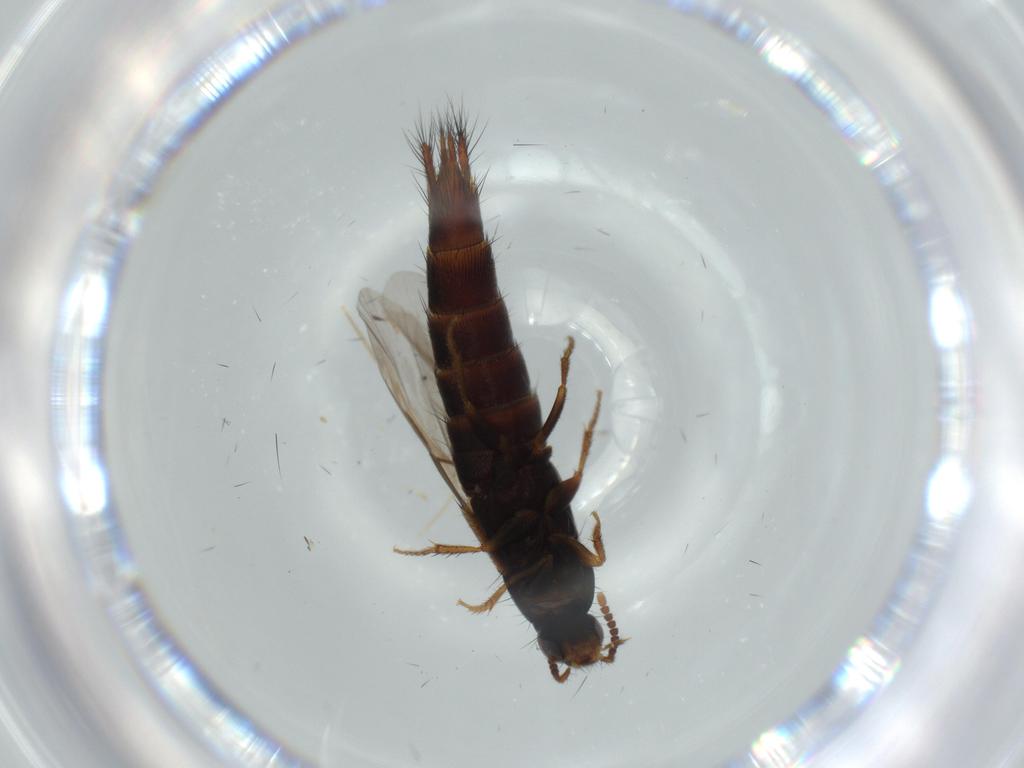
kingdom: Animalia
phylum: Arthropoda
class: Insecta
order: Coleoptera
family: Staphylinidae
